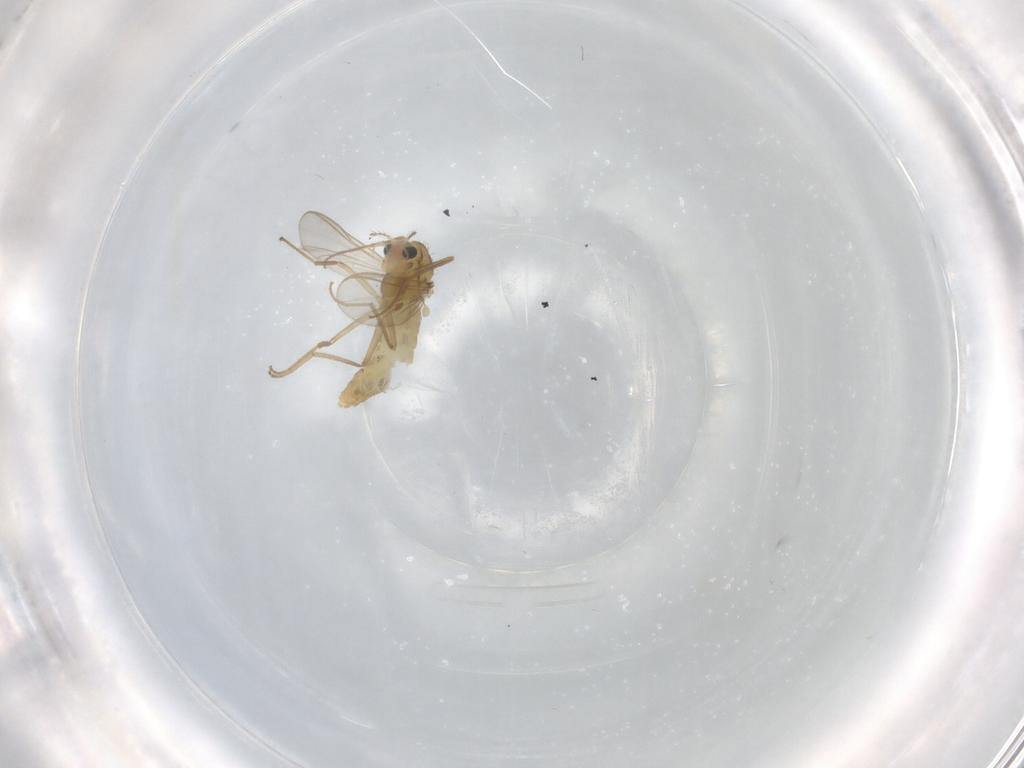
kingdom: Animalia
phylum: Arthropoda
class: Insecta
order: Diptera
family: Chironomidae
